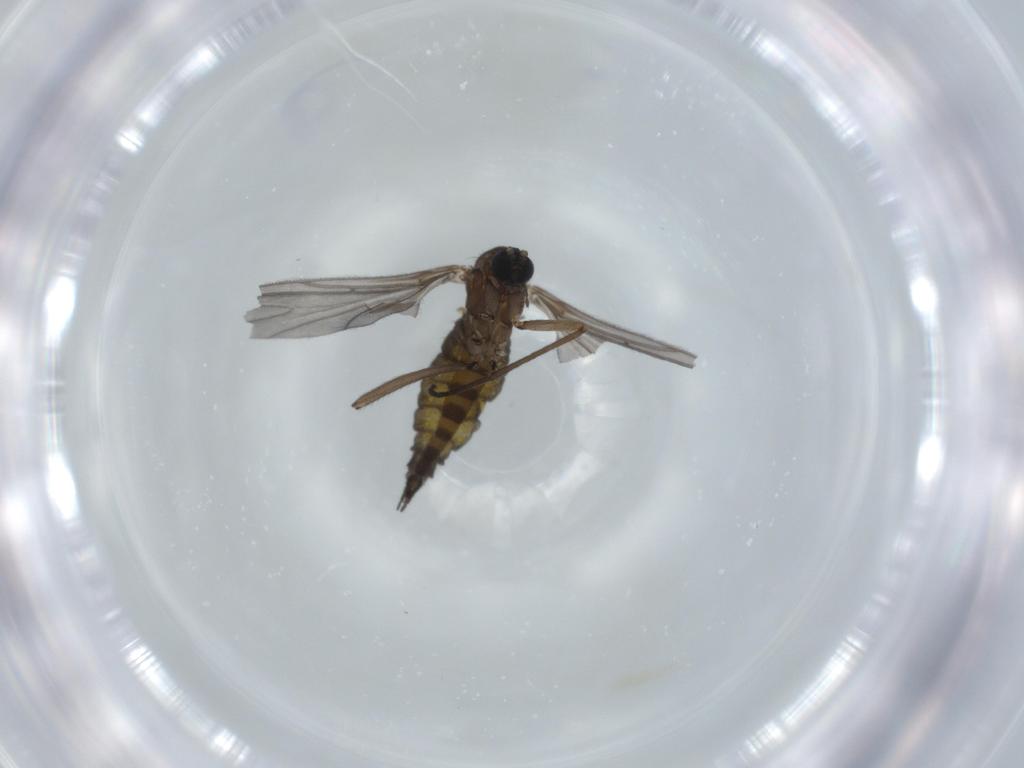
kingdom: Animalia
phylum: Arthropoda
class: Insecta
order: Diptera
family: Sciaridae
